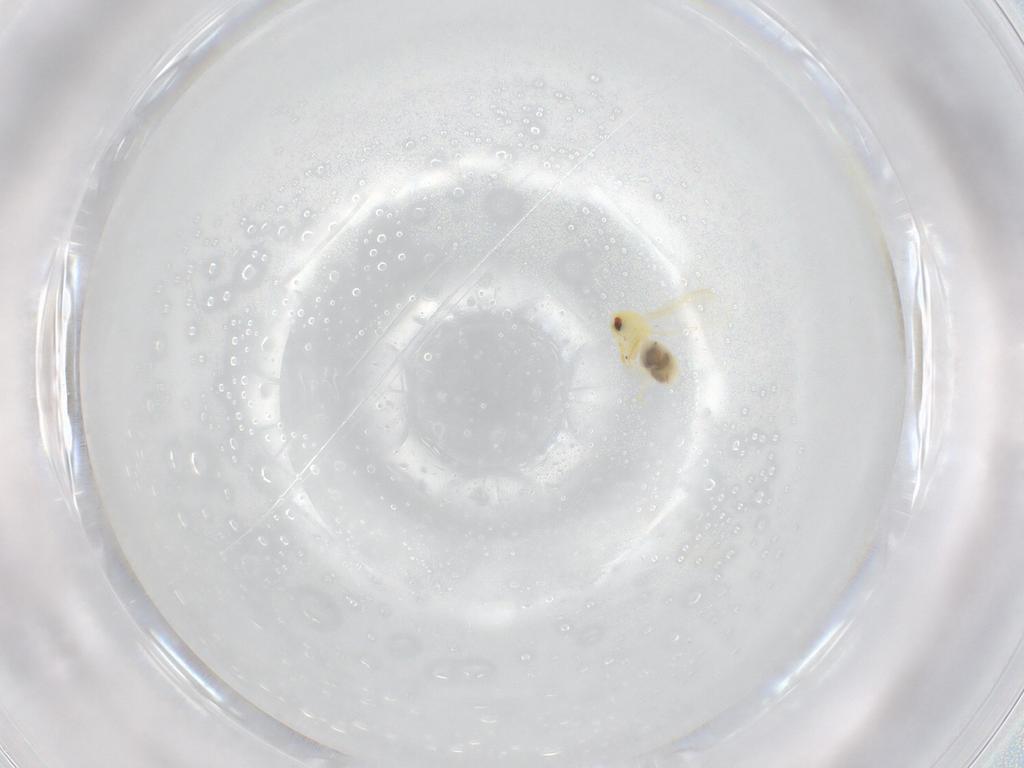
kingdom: Animalia
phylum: Arthropoda
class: Insecta
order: Hemiptera
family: Aleyrodidae
